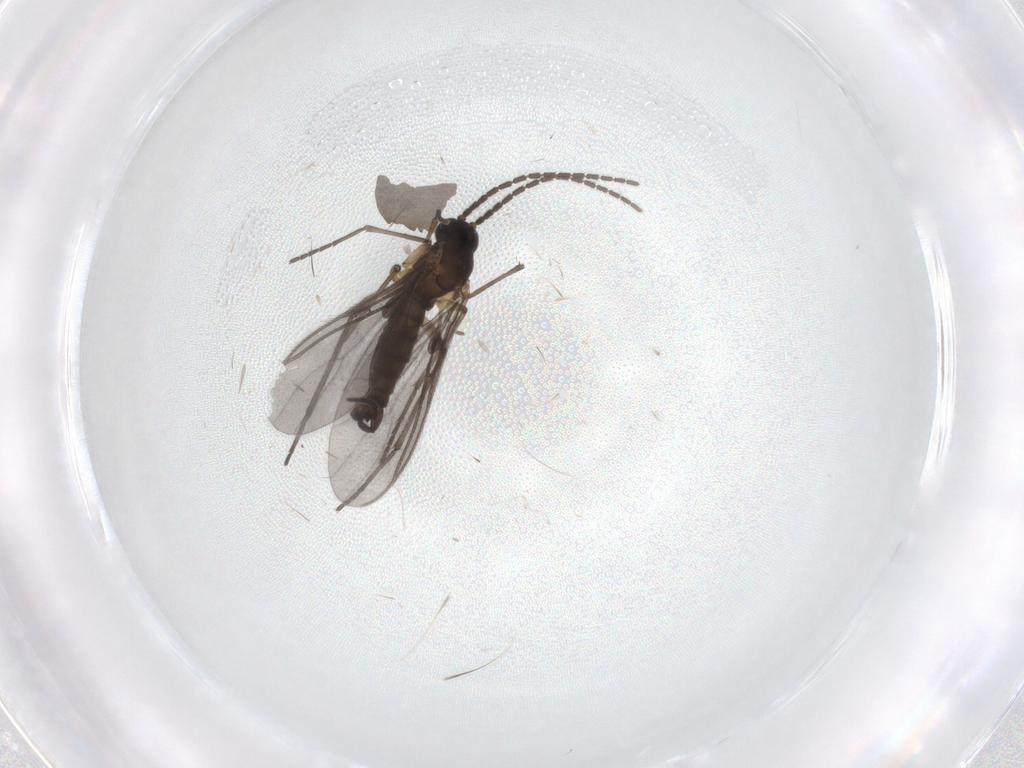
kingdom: Animalia
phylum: Arthropoda
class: Insecta
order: Diptera
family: Sciaridae
